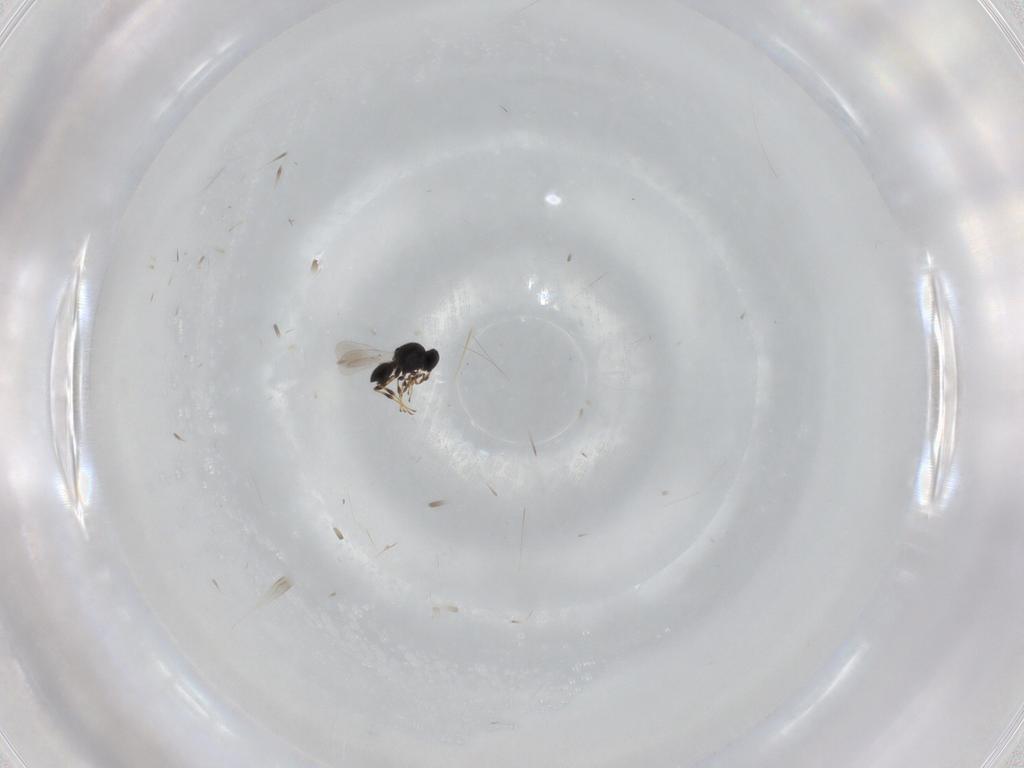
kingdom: Animalia
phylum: Arthropoda
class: Insecta
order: Hymenoptera
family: Platygastridae
